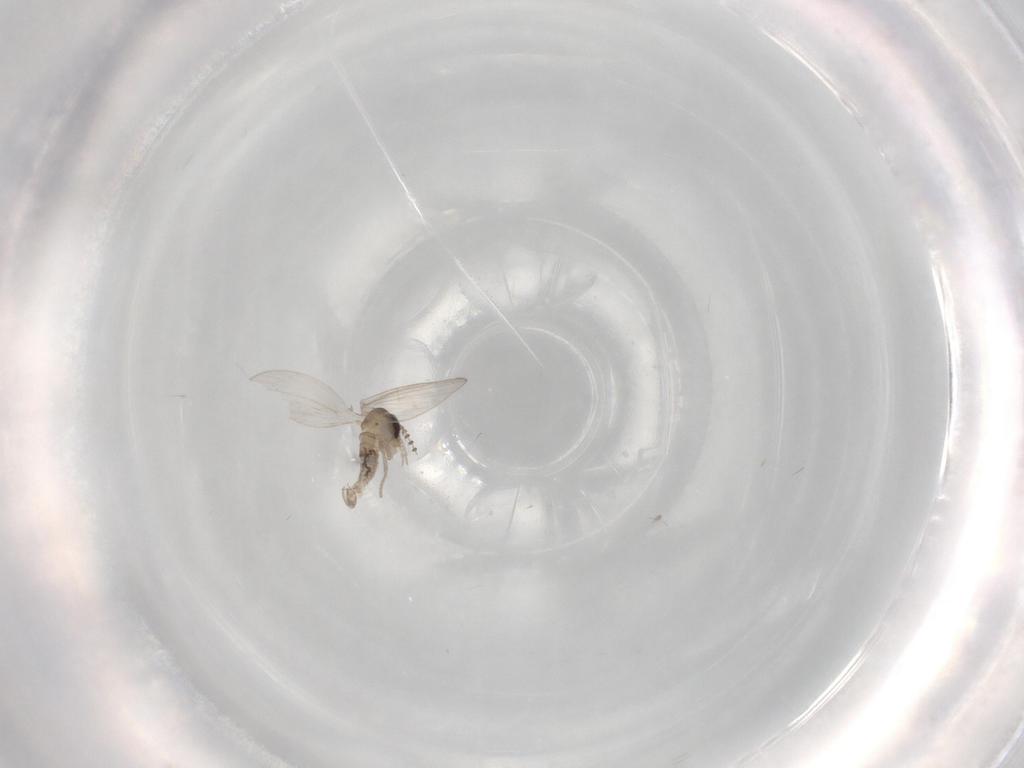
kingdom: Animalia
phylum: Arthropoda
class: Insecta
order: Diptera
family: Psychodidae
